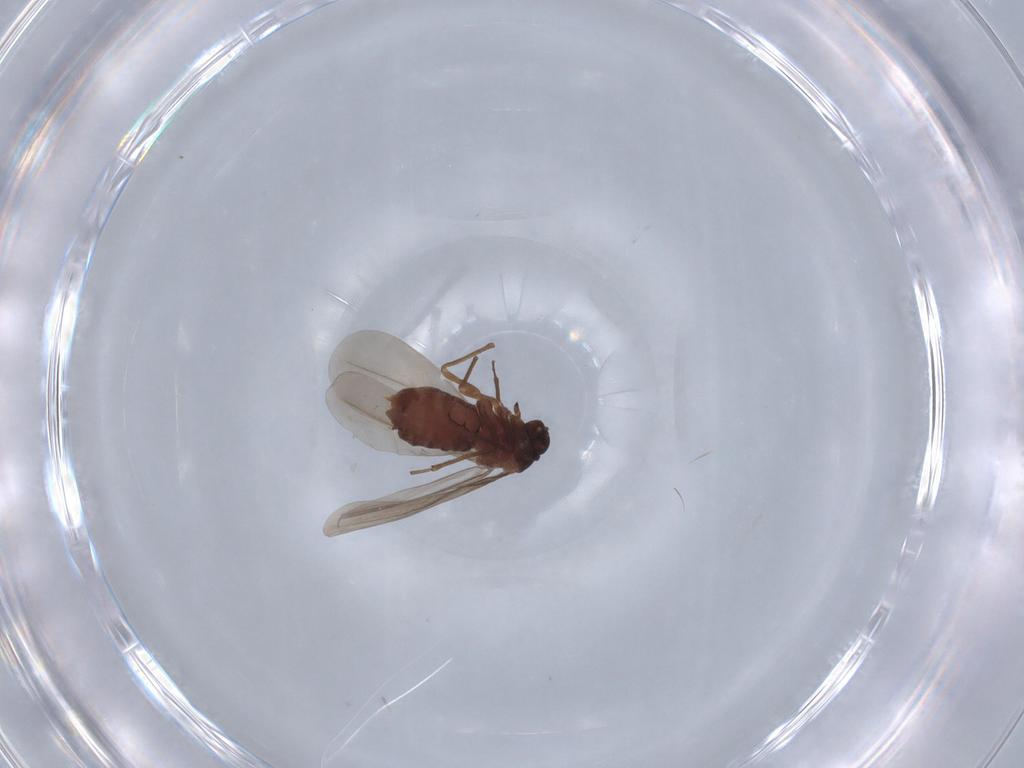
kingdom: Animalia
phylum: Arthropoda
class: Insecta
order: Hemiptera
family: Aleyrodidae
